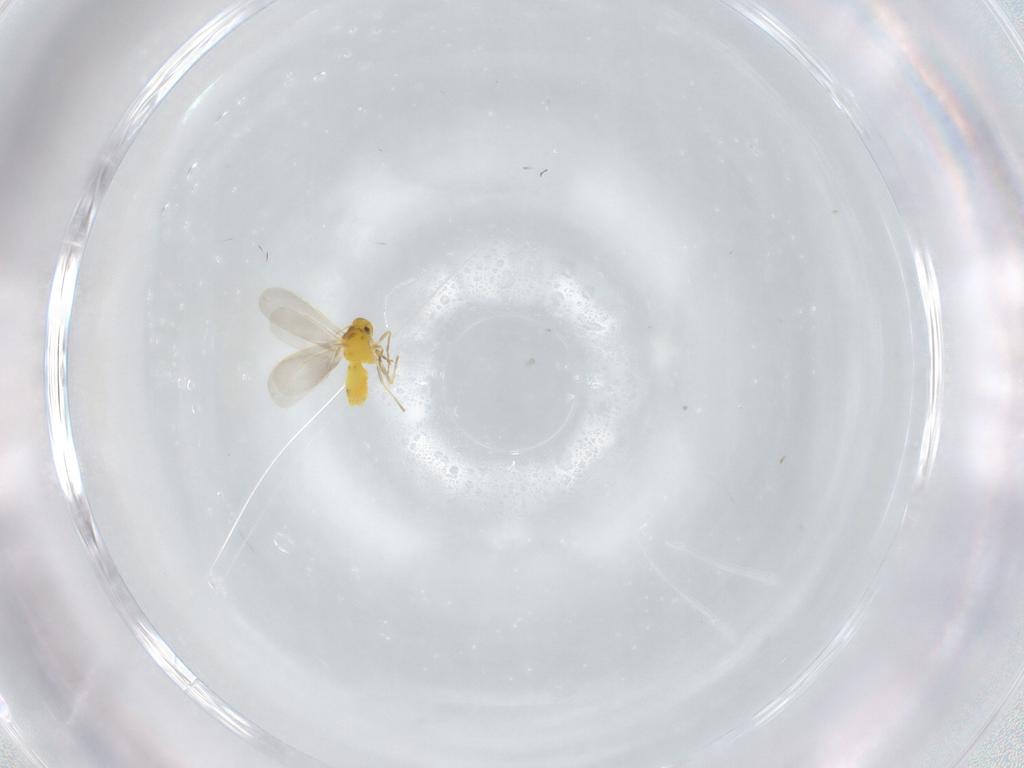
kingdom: Animalia
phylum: Arthropoda
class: Insecta
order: Hemiptera
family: Aleyrodidae
